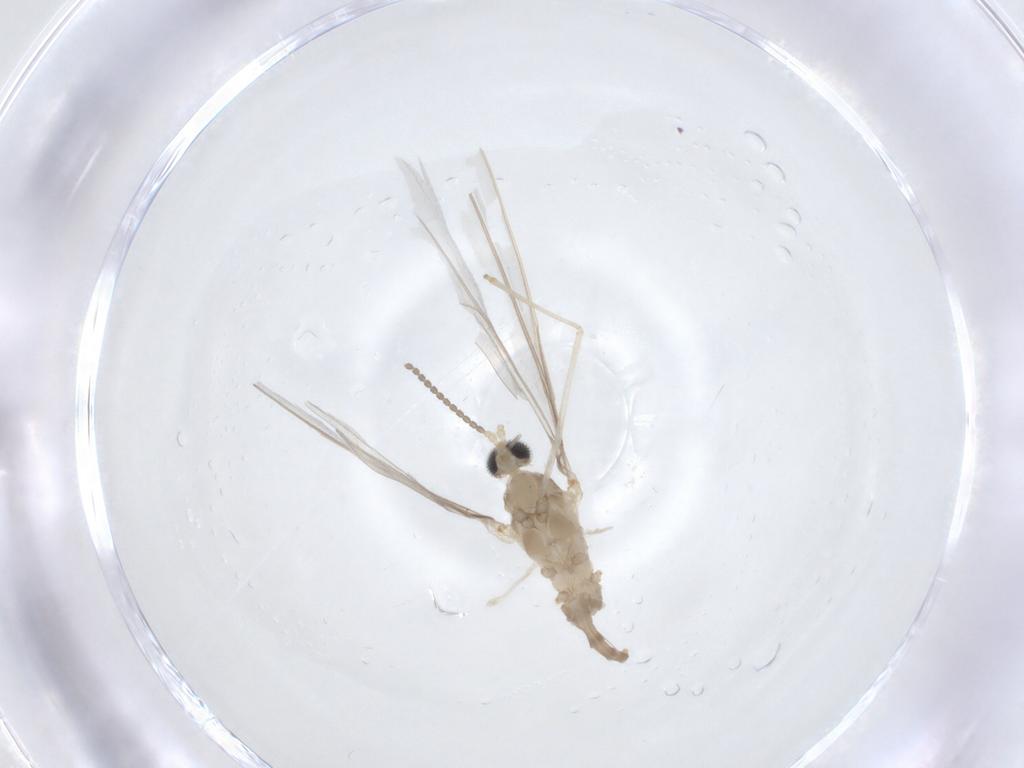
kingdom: Animalia
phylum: Arthropoda
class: Insecta
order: Diptera
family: Cecidomyiidae
